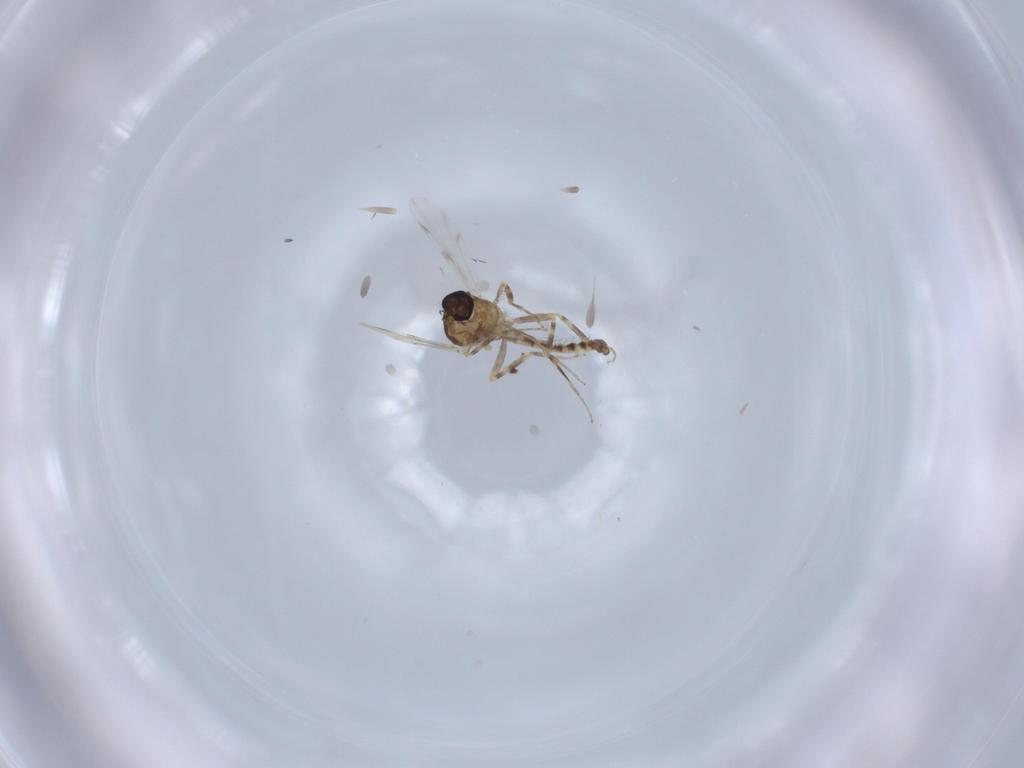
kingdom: Animalia
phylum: Arthropoda
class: Insecta
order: Diptera
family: Ceratopogonidae
